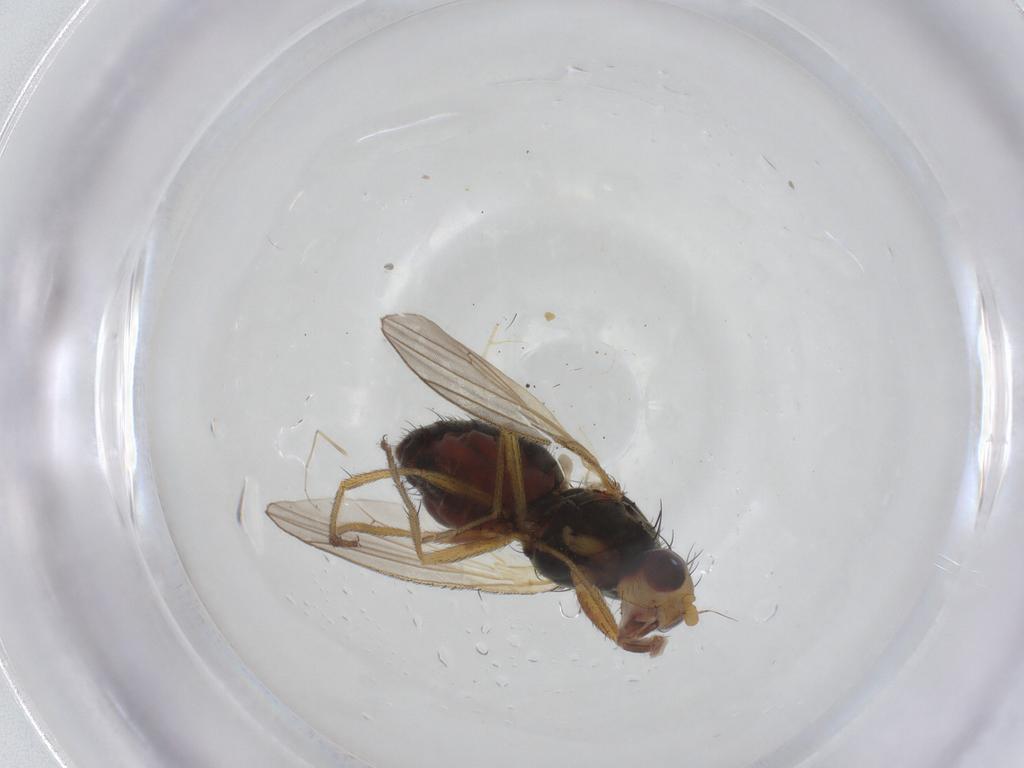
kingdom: Animalia
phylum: Arthropoda
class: Insecta
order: Diptera
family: Heleomyzidae
